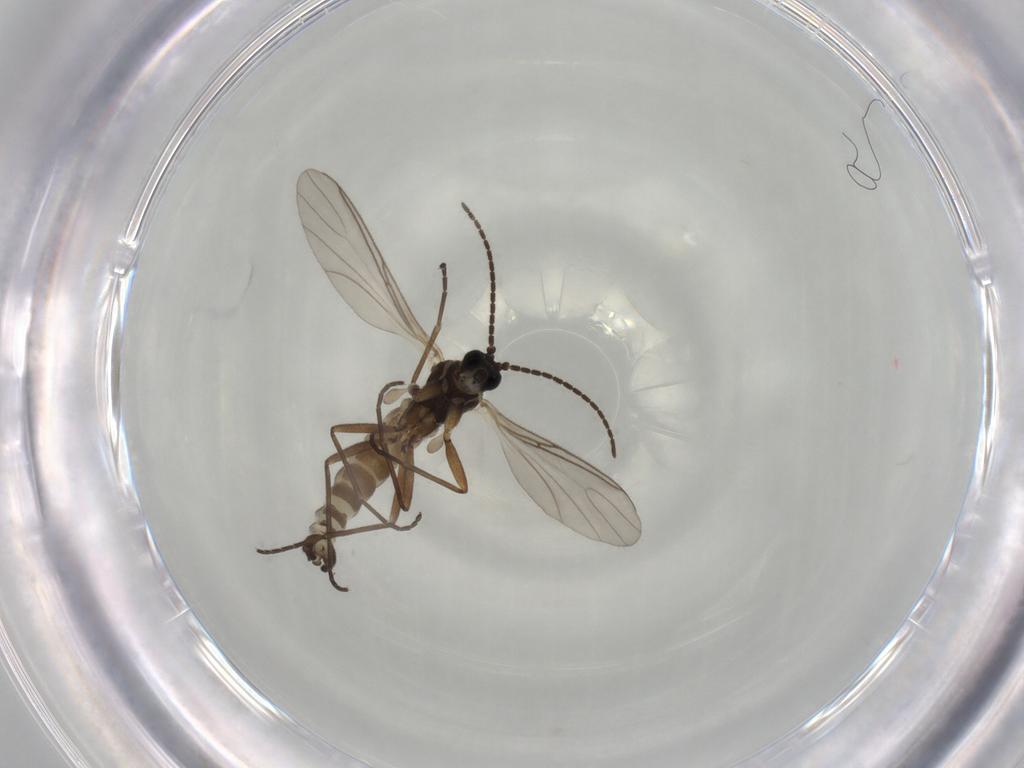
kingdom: Animalia
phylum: Arthropoda
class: Insecta
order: Diptera
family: Sciaridae
